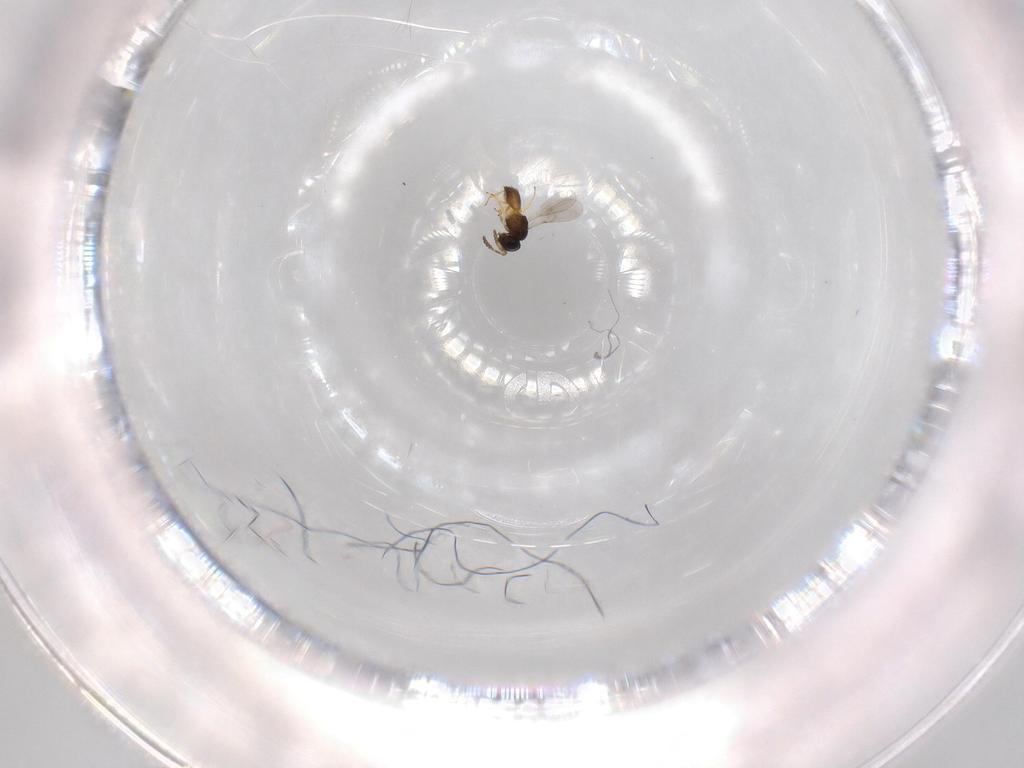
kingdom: Animalia
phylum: Arthropoda
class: Insecta
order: Hymenoptera
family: Scelionidae
